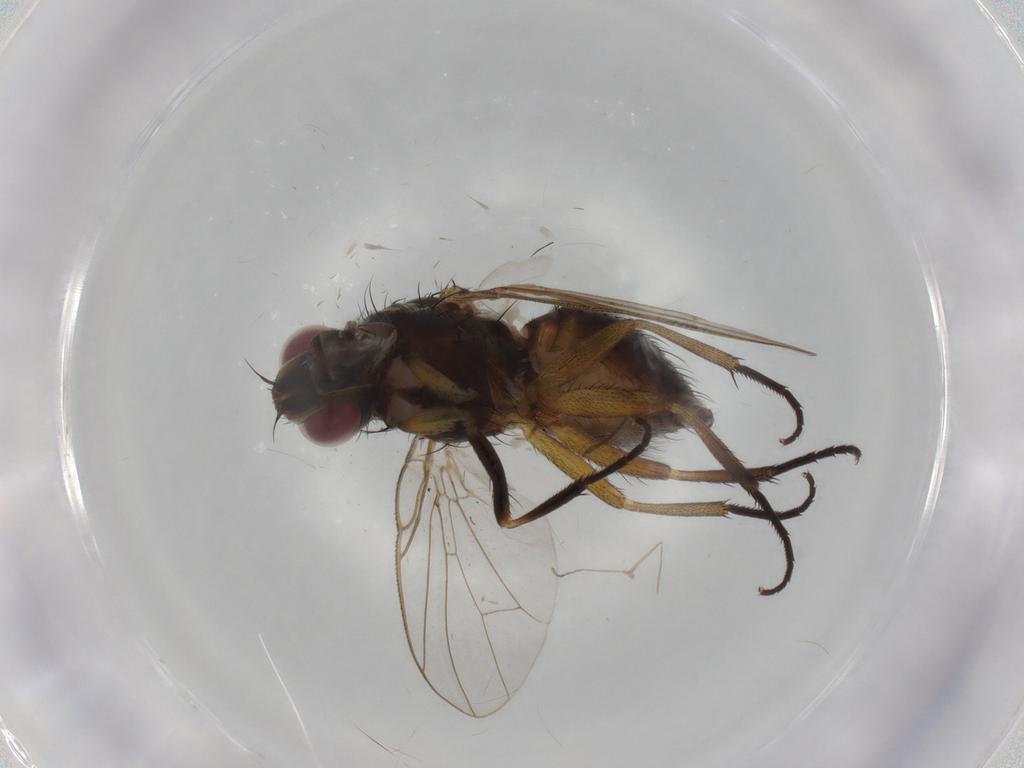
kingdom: Animalia
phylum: Arthropoda
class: Insecta
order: Diptera
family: Muscidae
